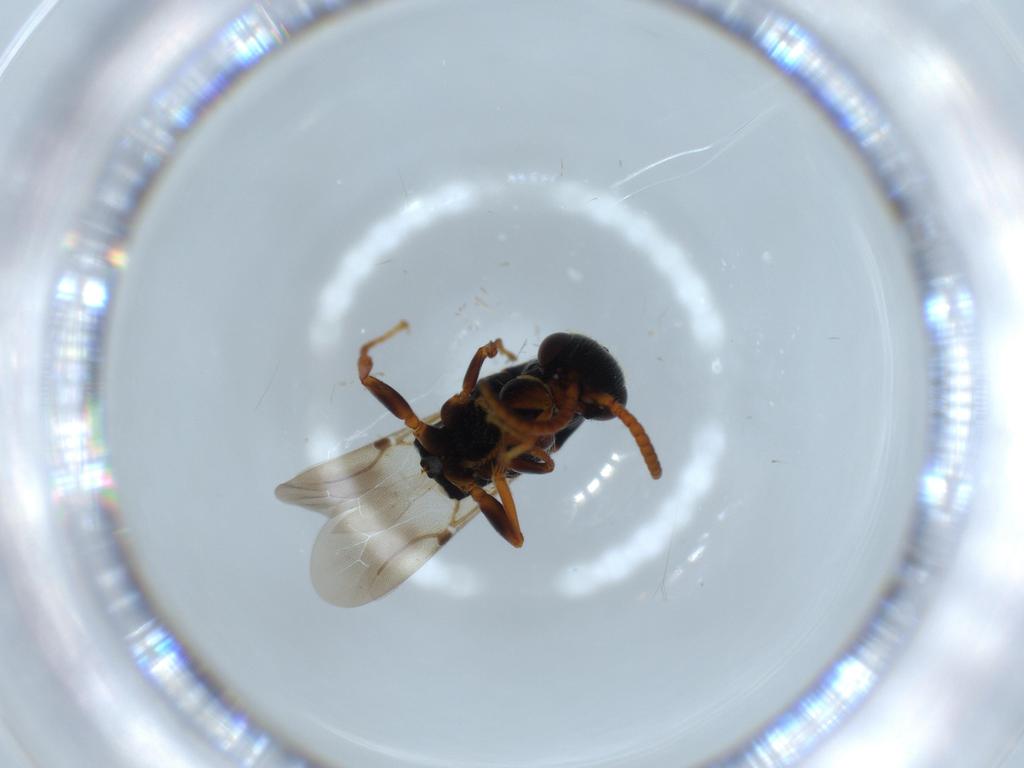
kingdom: Animalia
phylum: Arthropoda
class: Insecta
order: Hymenoptera
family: Bethylidae
